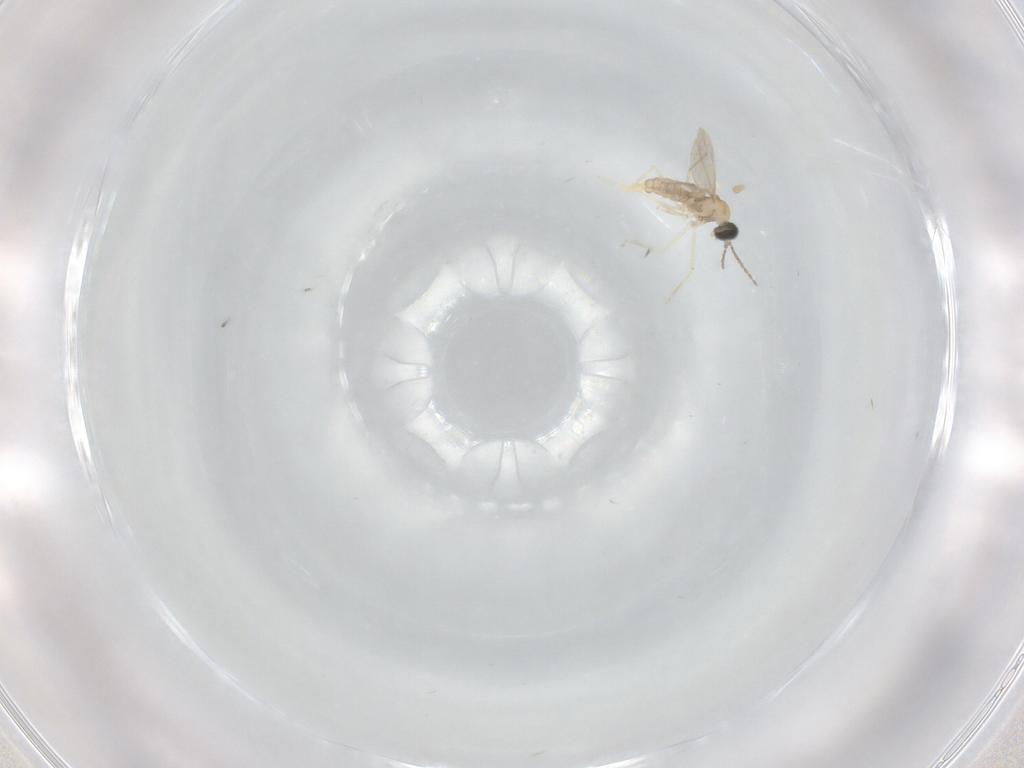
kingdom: Animalia
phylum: Arthropoda
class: Insecta
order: Diptera
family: Cecidomyiidae
